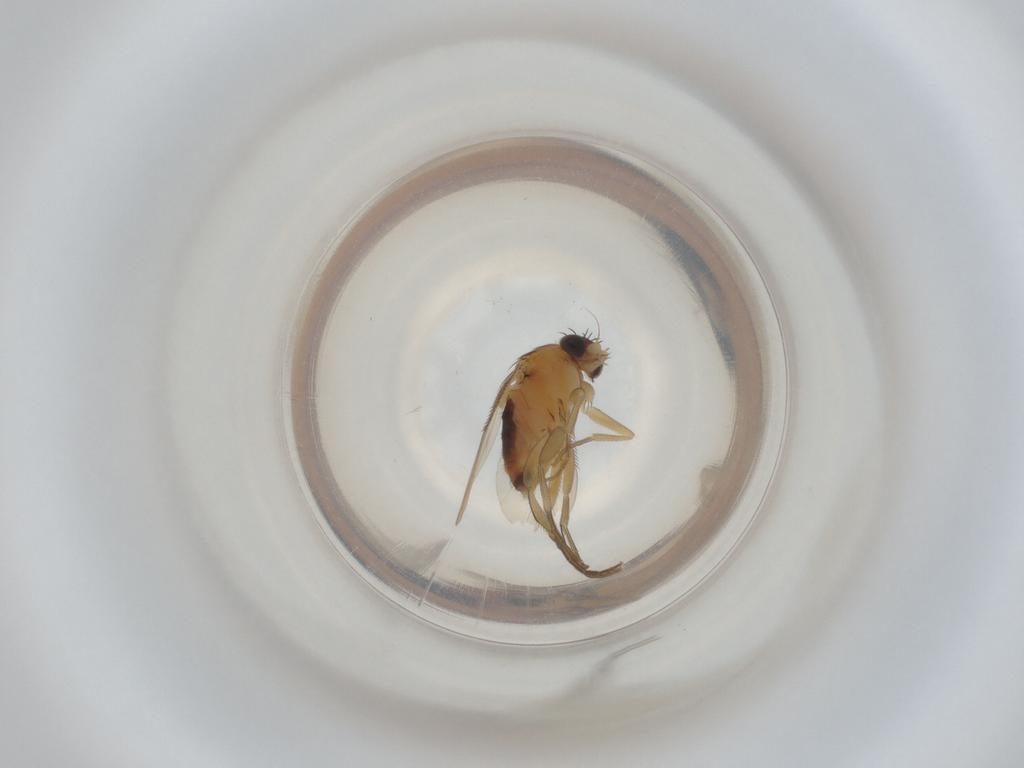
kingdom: Animalia
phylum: Arthropoda
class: Insecta
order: Diptera
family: Phoridae
